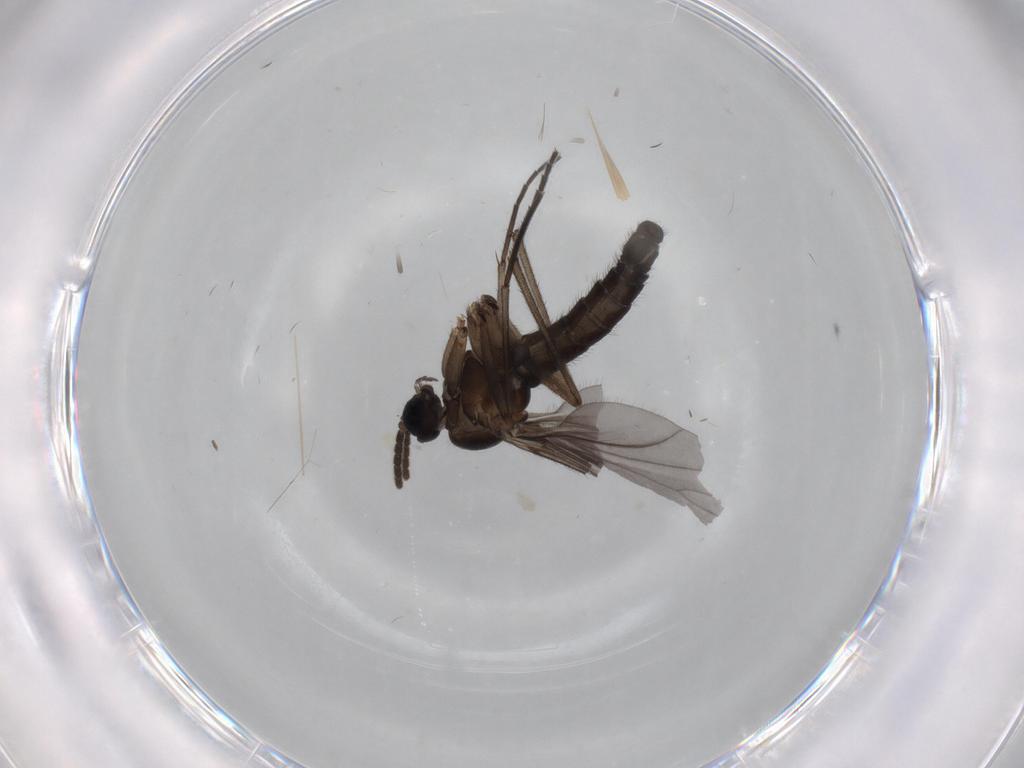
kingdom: Animalia
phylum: Arthropoda
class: Insecta
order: Diptera
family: Sciaridae
